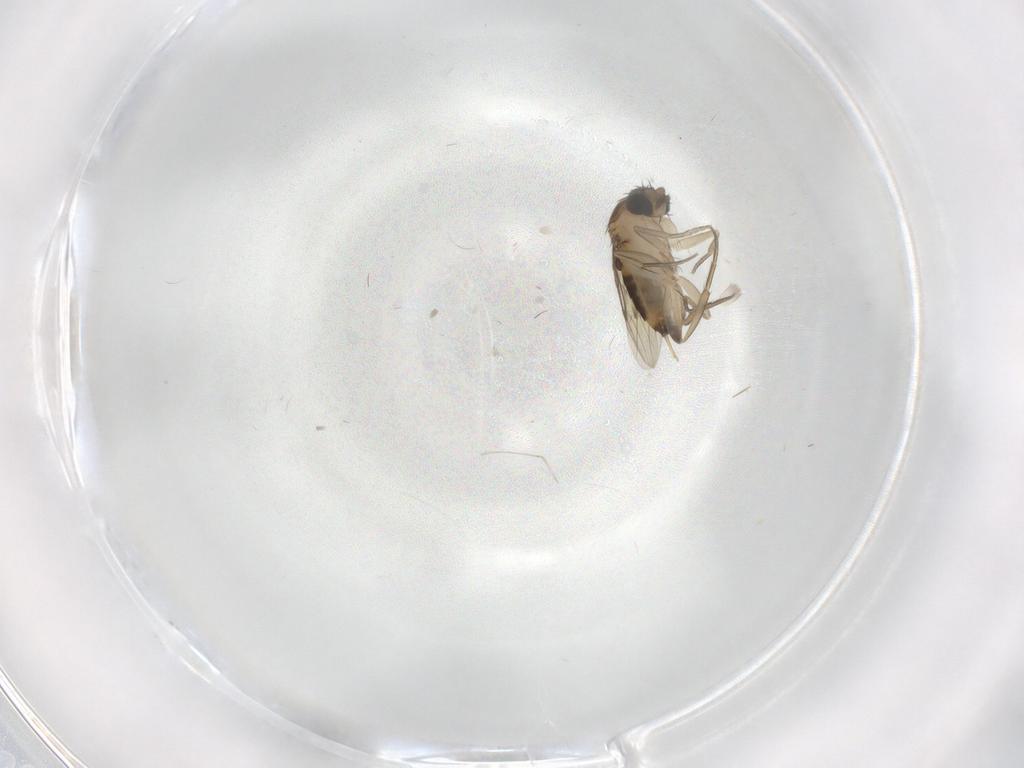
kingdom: Animalia
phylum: Arthropoda
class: Insecta
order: Diptera
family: Phoridae
